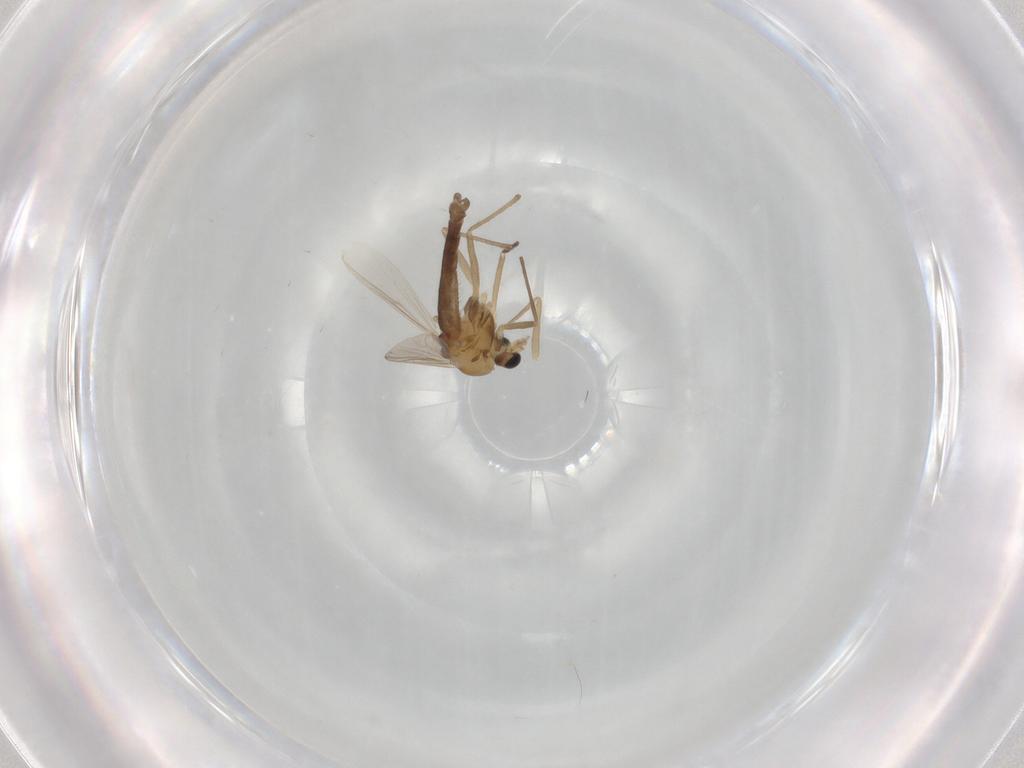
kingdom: Animalia
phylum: Arthropoda
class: Insecta
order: Diptera
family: Chironomidae
